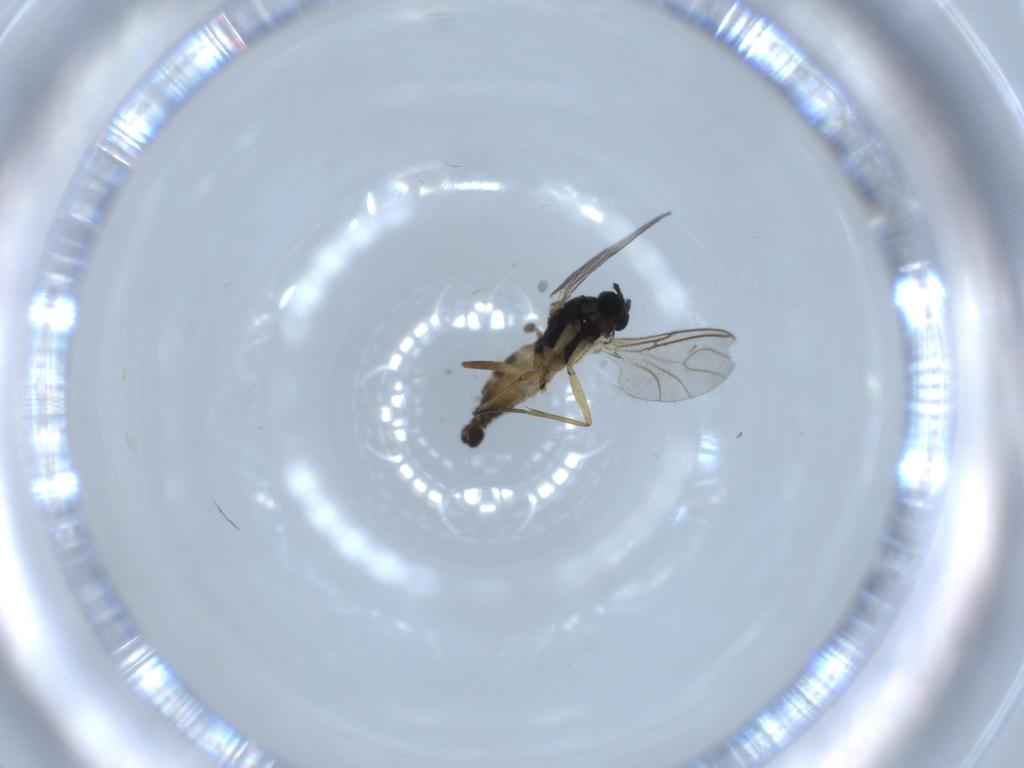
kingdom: Animalia
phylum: Arthropoda
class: Insecta
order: Diptera
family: Sciaridae
